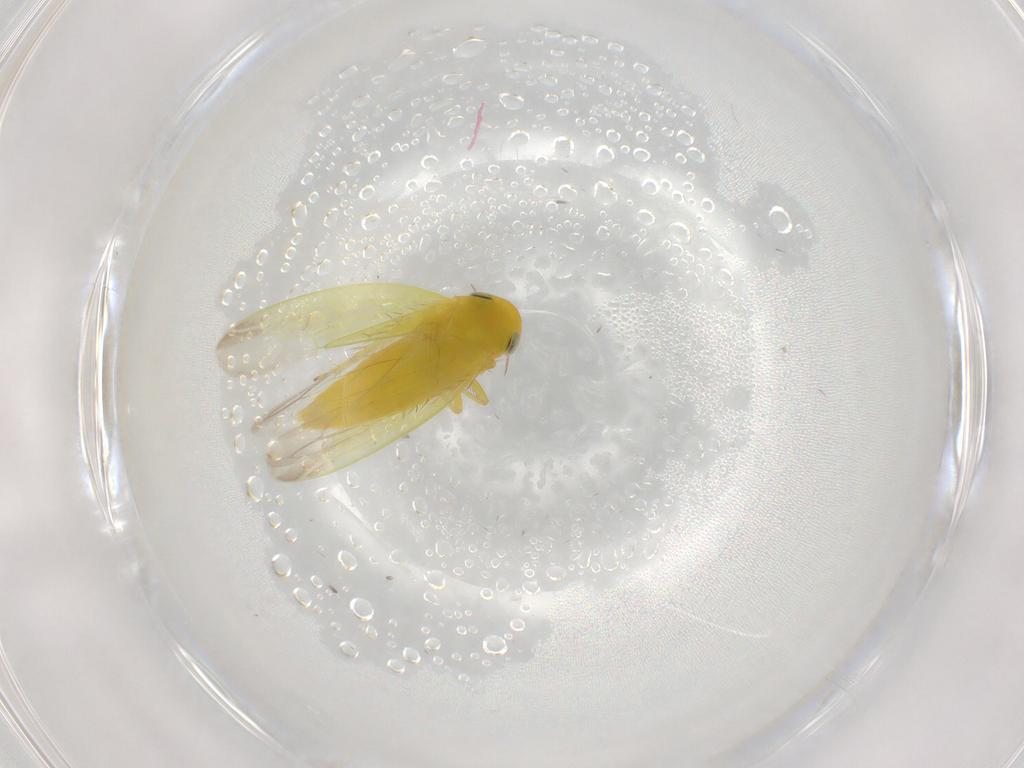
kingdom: Animalia
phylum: Arthropoda
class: Insecta
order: Hemiptera
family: Cicadellidae
